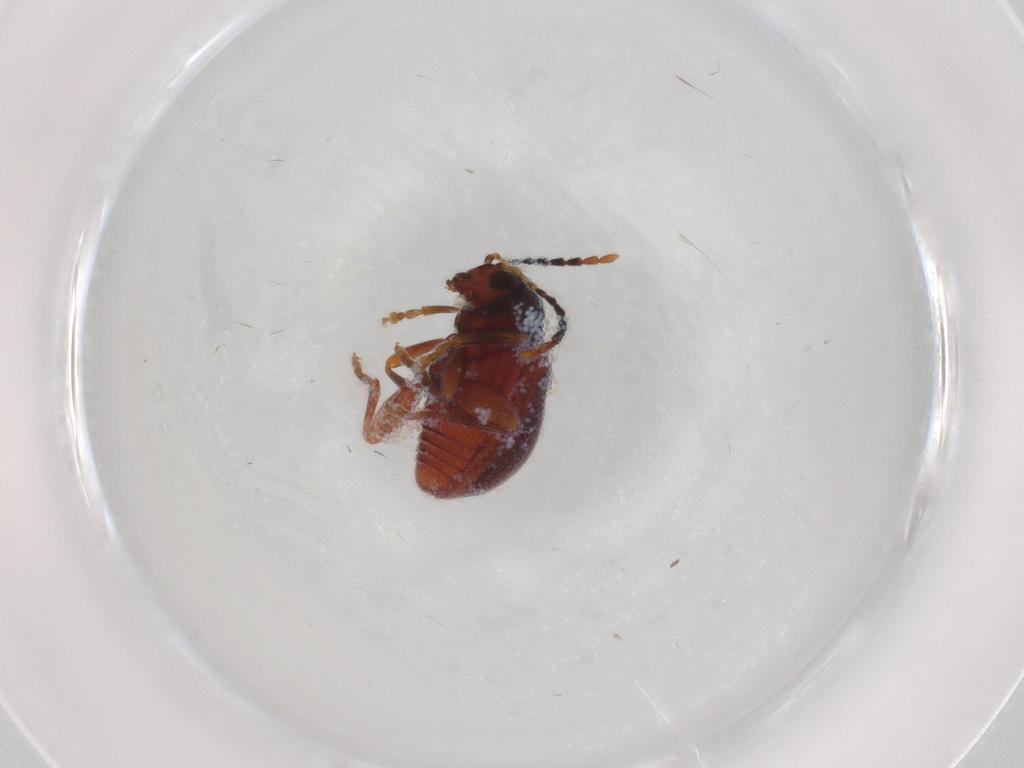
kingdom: Animalia
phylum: Arthropoda
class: Insecta
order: Coleoptera
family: Chrysomelidae
